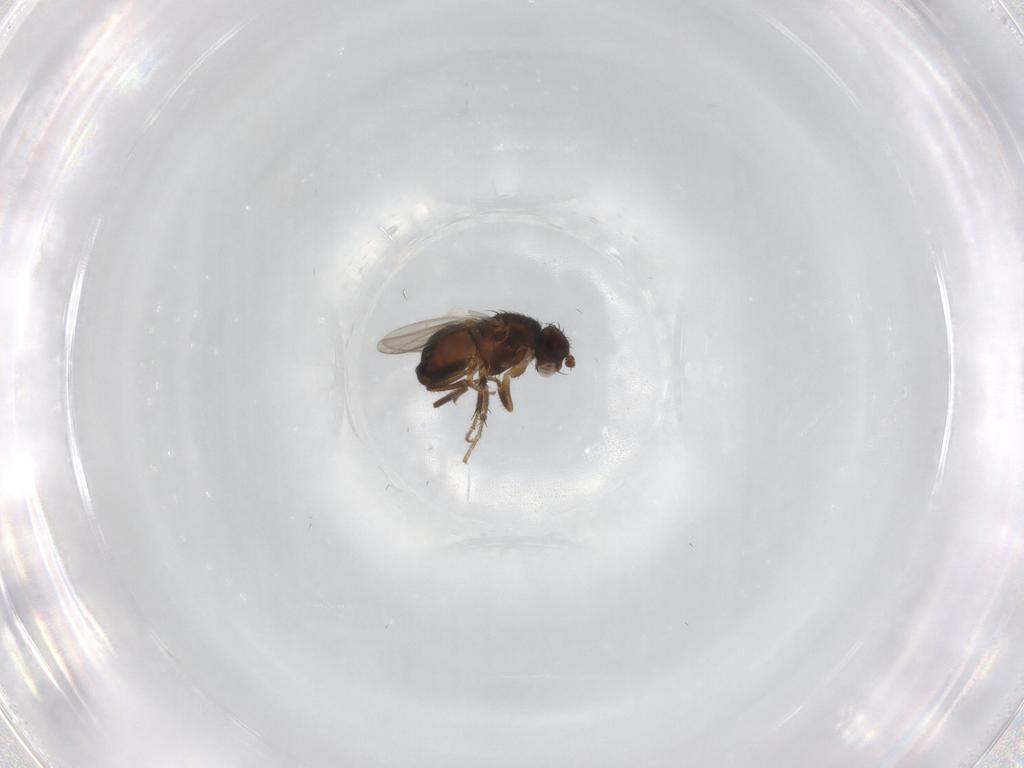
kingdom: Animalia
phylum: Arthropoda
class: Insecta
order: Diptera
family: Sphaeroceridae
